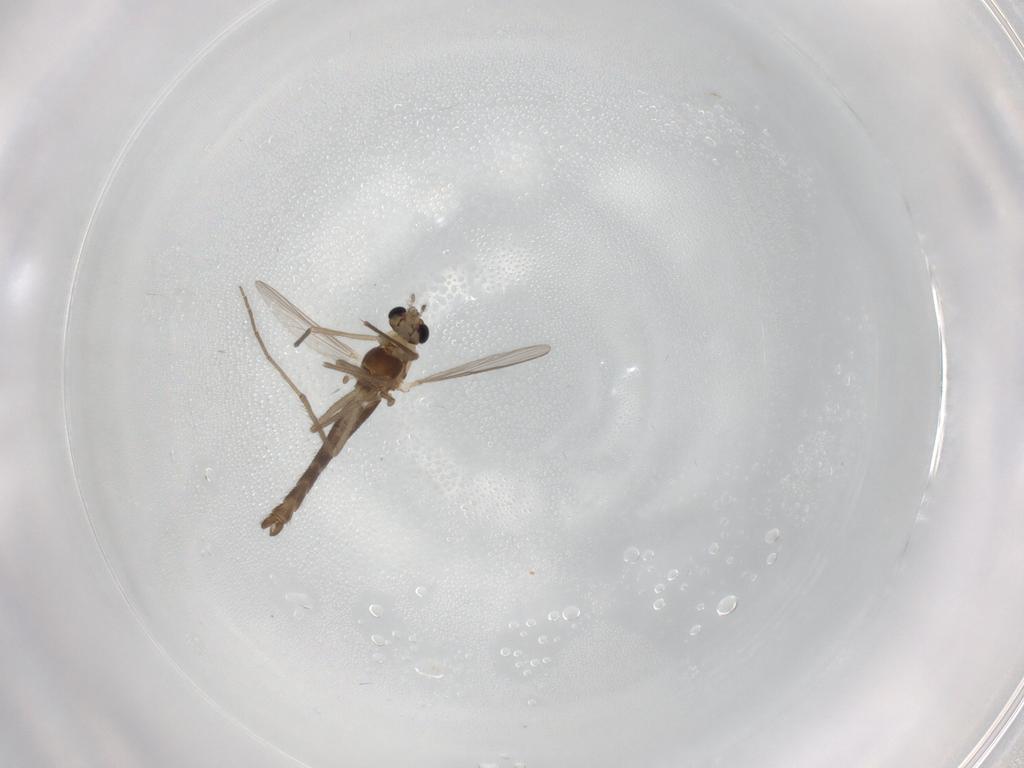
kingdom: Animalia
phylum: Arthropoda
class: Insecta
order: Diptera
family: Chironomidae
